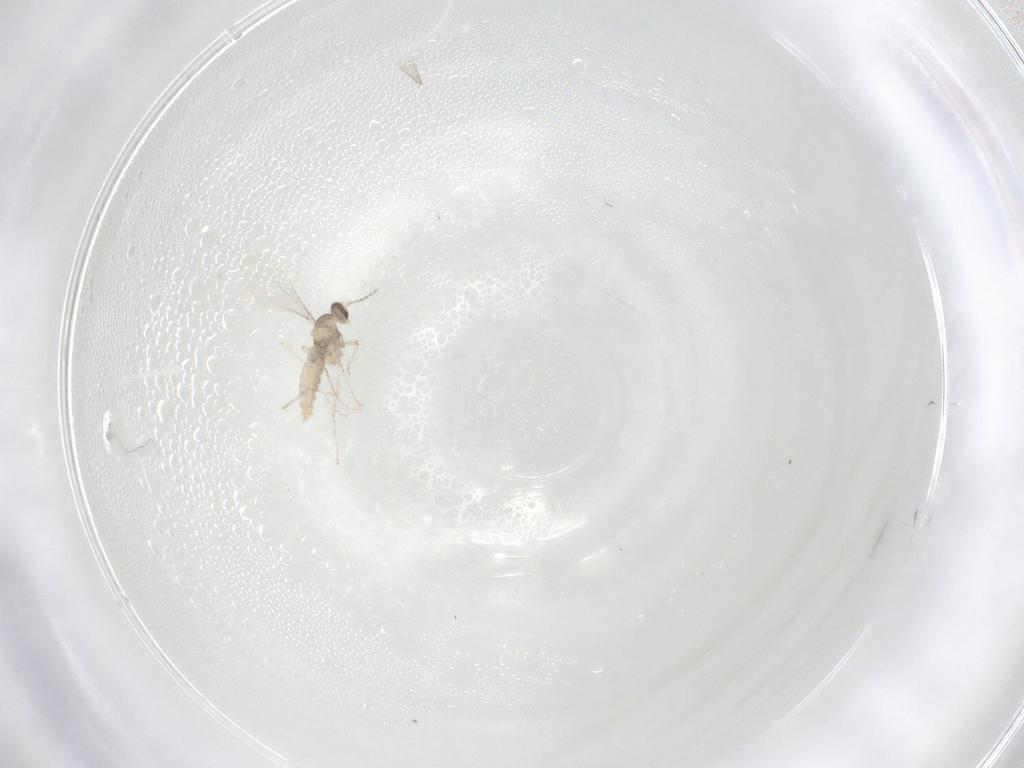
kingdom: Animalia
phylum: Arthropoda
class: Insecta
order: Diptera
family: Cecidomyiidae
